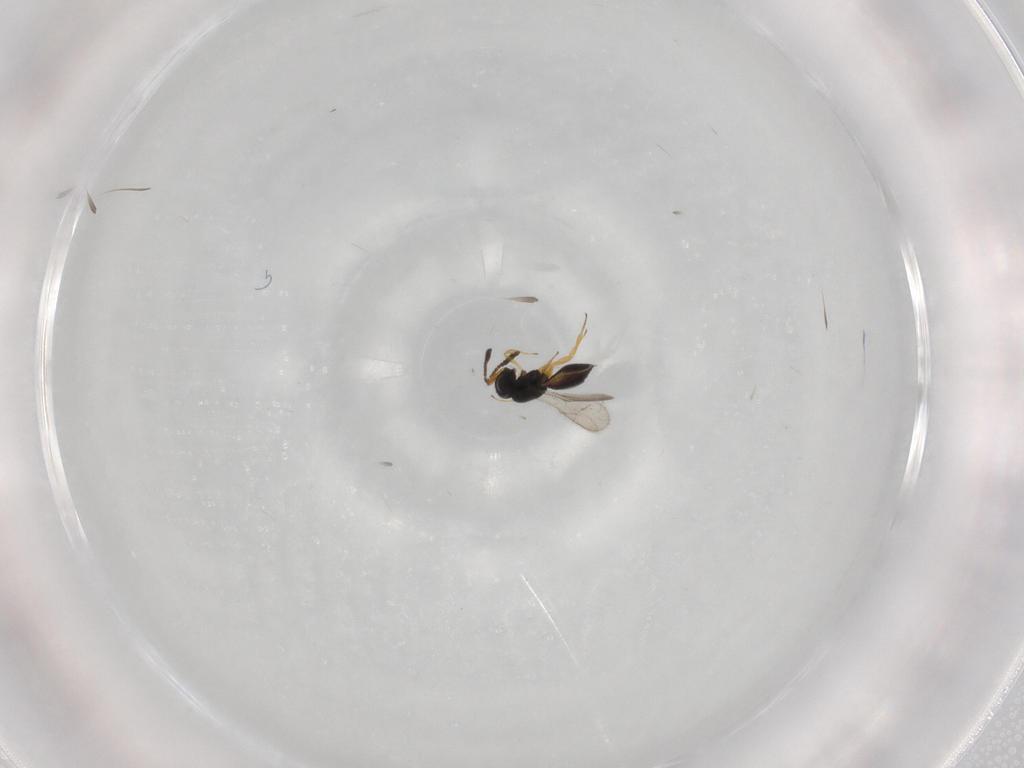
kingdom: Animalia
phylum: Arthropoda
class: Insecta
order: Hymenoptera
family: Scelionidae
